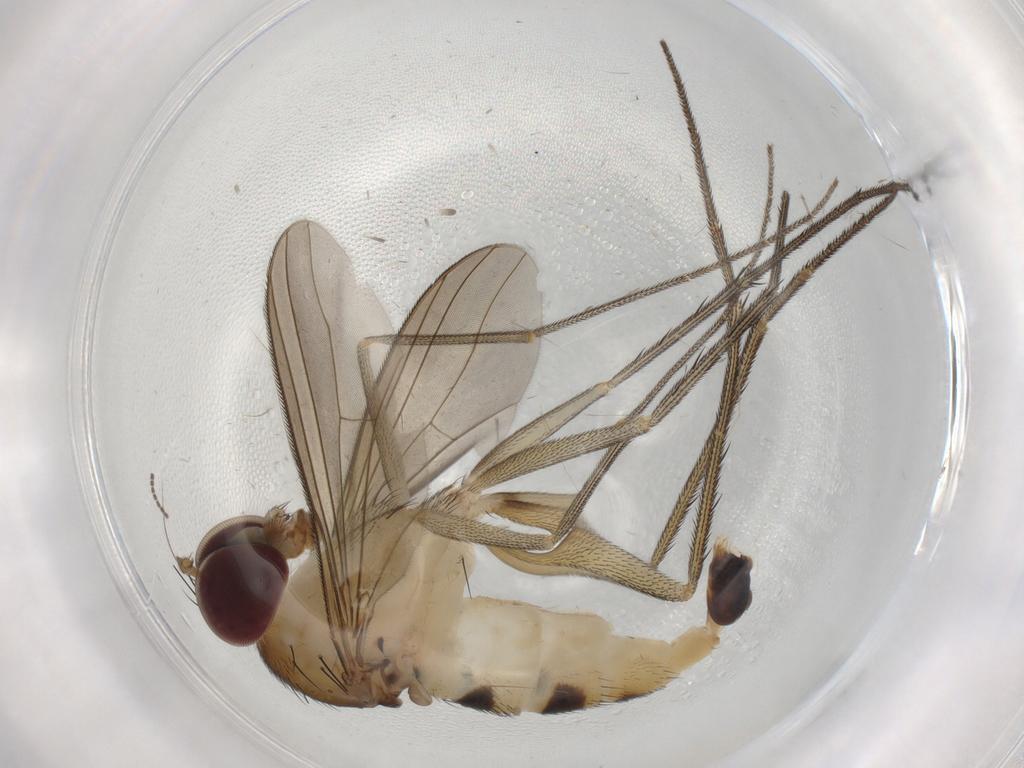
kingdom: Animalia
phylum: Arthropoda
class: Insecta
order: Diptera
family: Dolichopodidae
